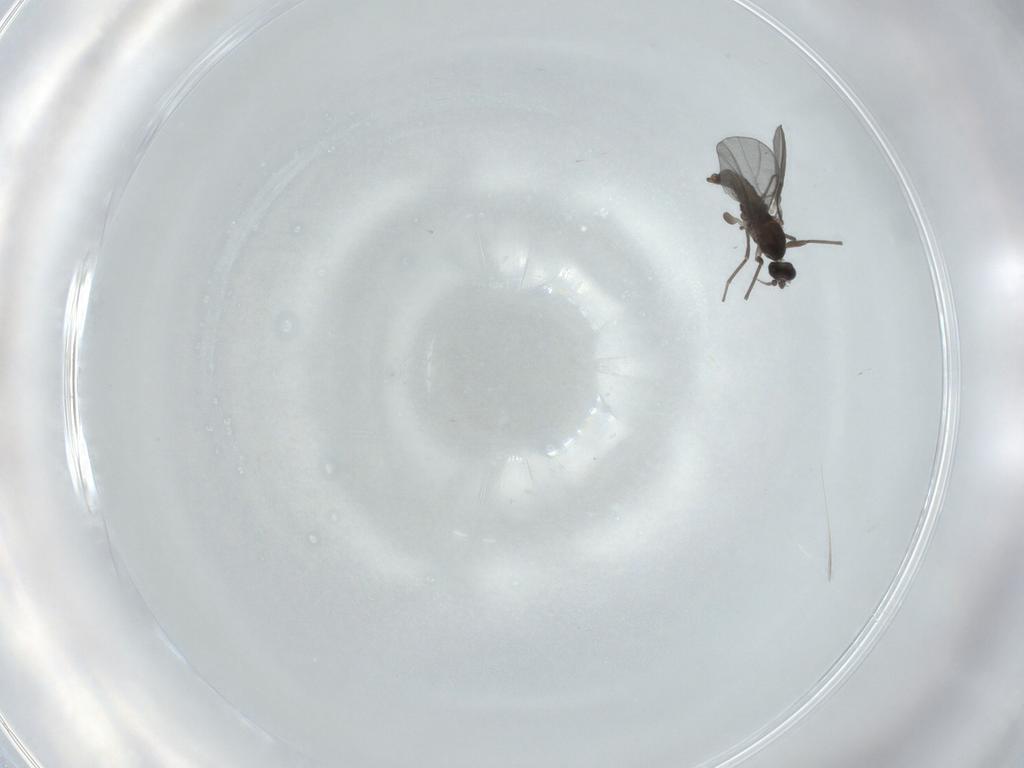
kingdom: Animalia
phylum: Arthropoda
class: Insecta
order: Diptera
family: Cecidomyiidae
